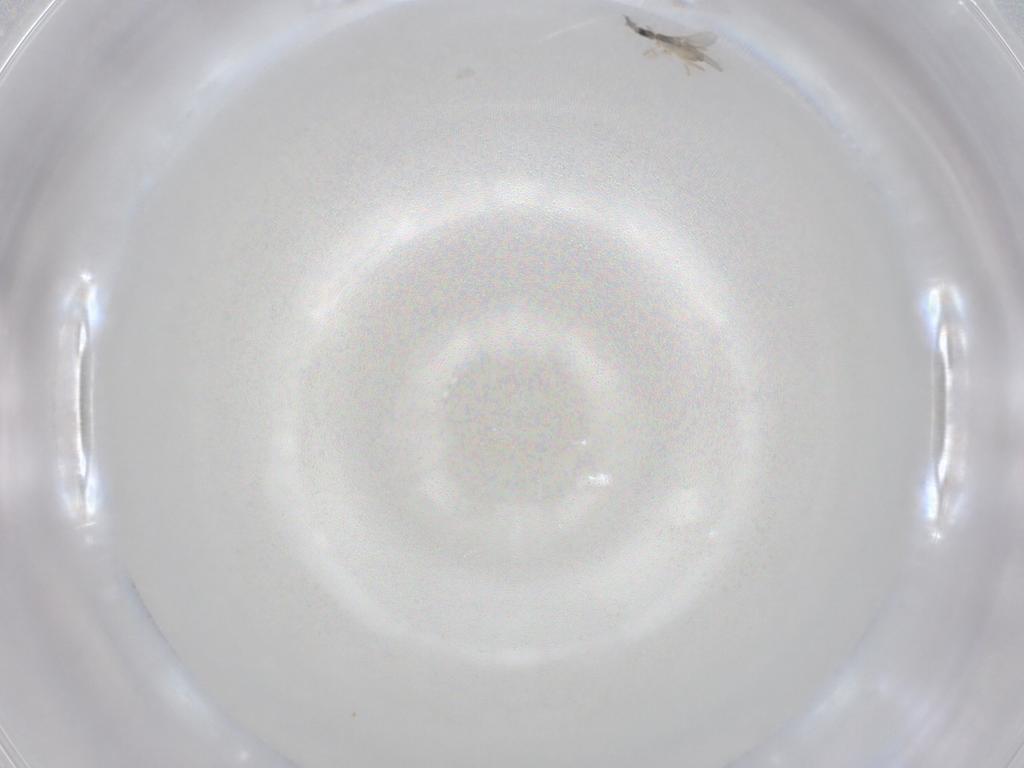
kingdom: Animalia
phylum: Arthropoda
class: Insecta
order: Diptera
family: Cecidomyiidae
